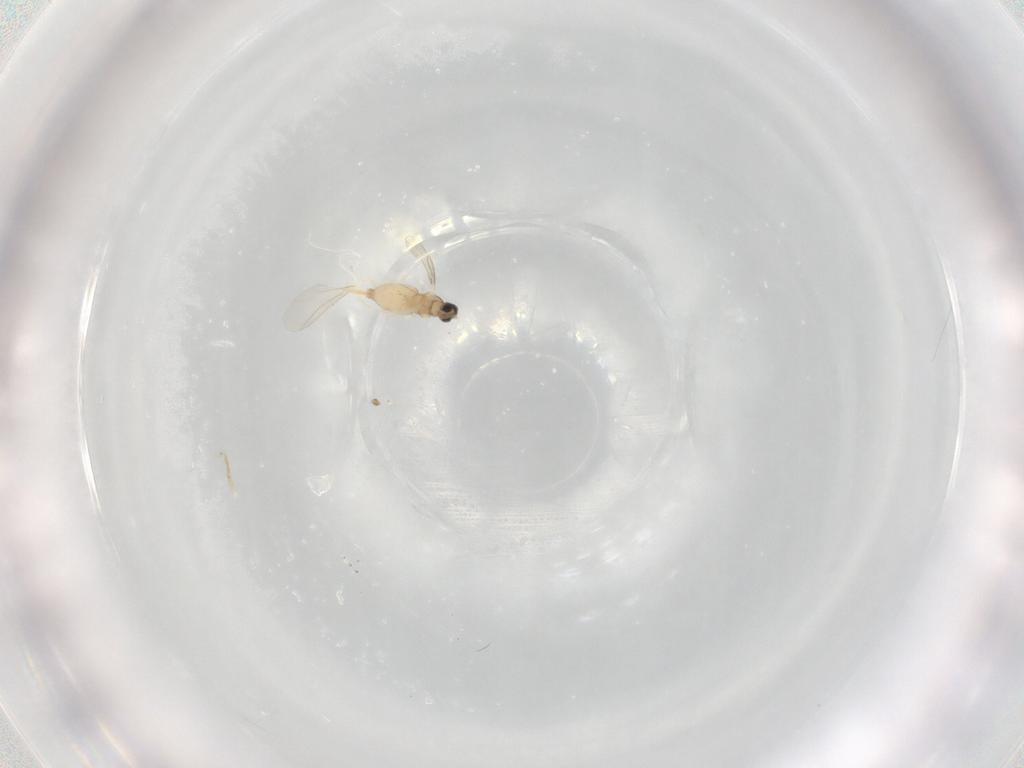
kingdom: Animalia
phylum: Arthropoda
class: Insecta
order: Diptera
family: Cecidomyiidae
